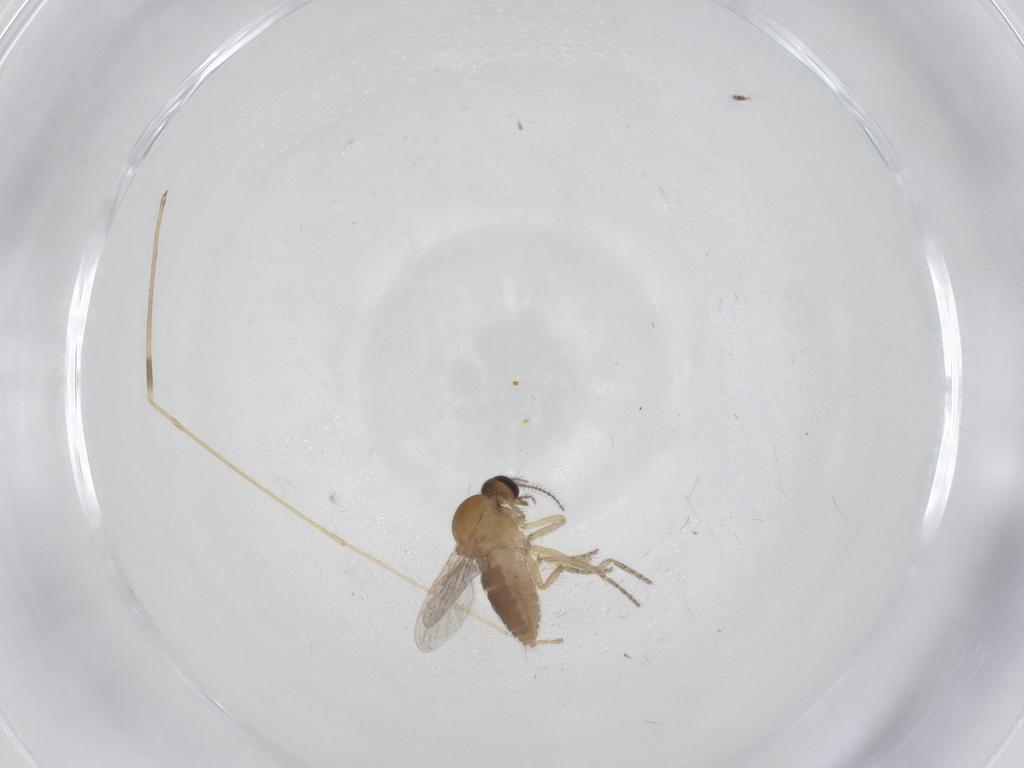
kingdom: Animalia
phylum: Arthropoda
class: Insecta
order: Diptera
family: Ceratopogonidae
